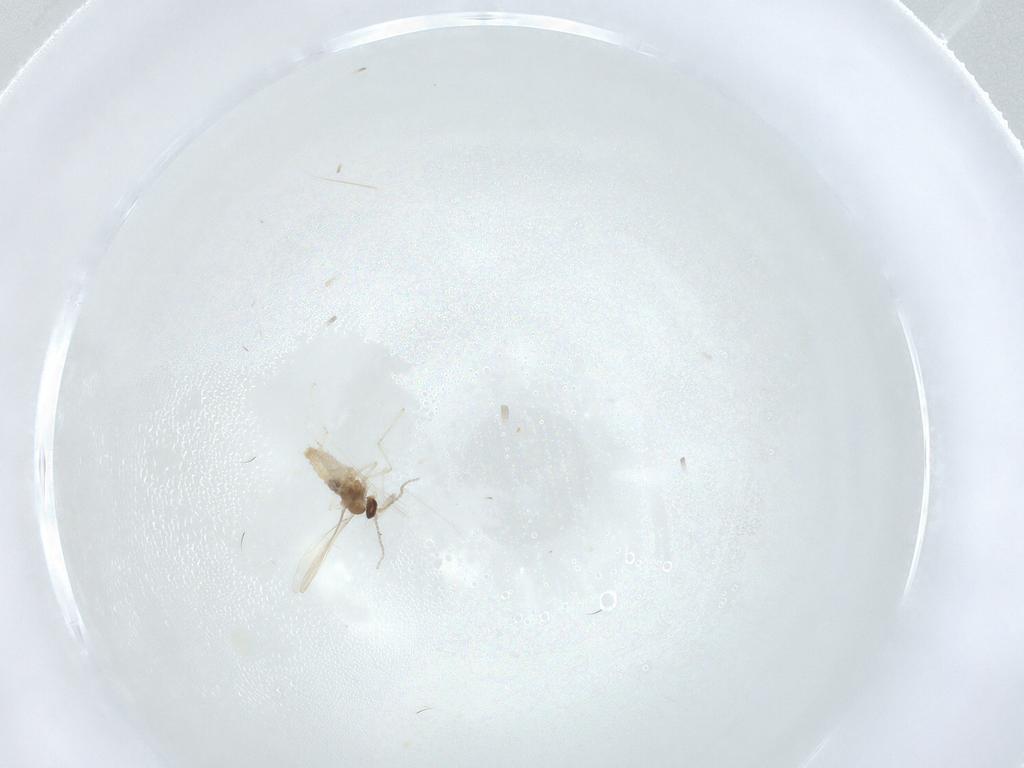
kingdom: Animalia
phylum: Arthropoda
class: Insecta
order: Diptera
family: Cecidomyiidae
